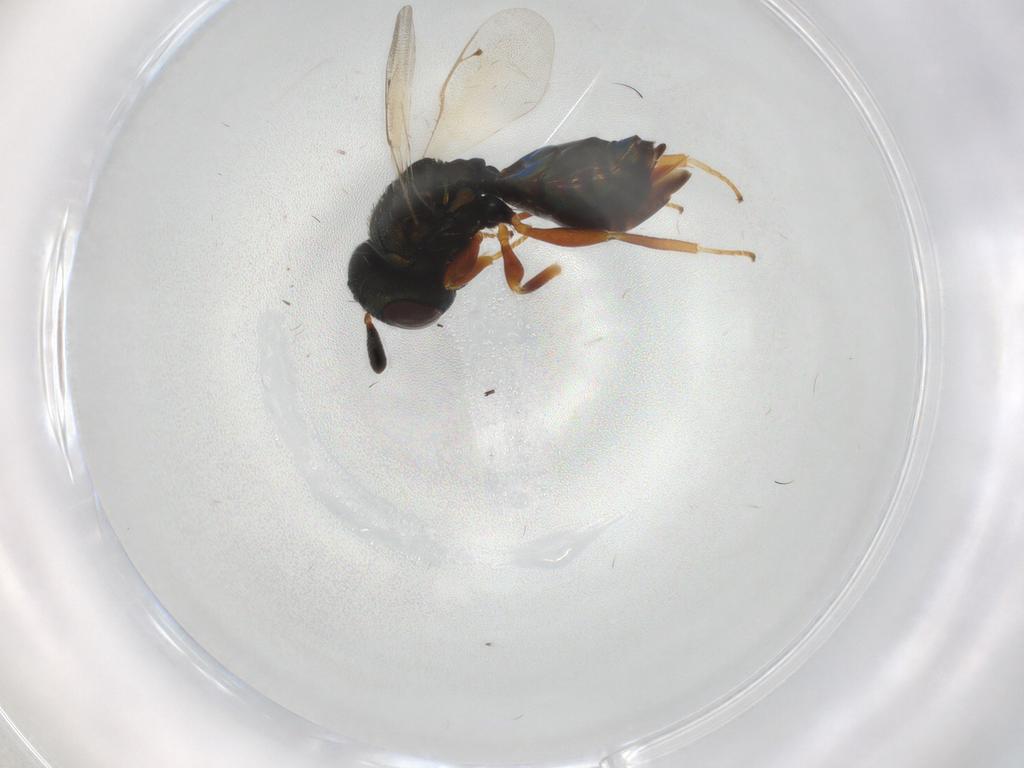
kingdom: Animalia
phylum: Arthropoda
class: Insecta
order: Hymenoptera
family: Pteromalidae
